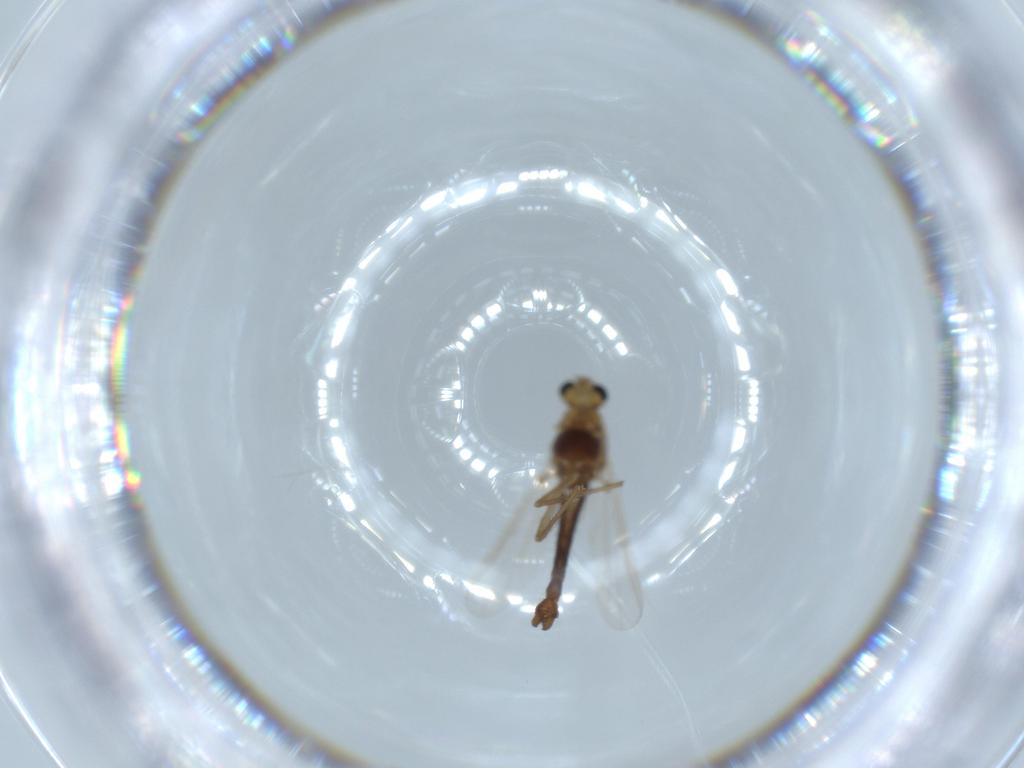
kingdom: Animalia
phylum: Arthropoda
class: Insecta
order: Diptera
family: Chironomidae
